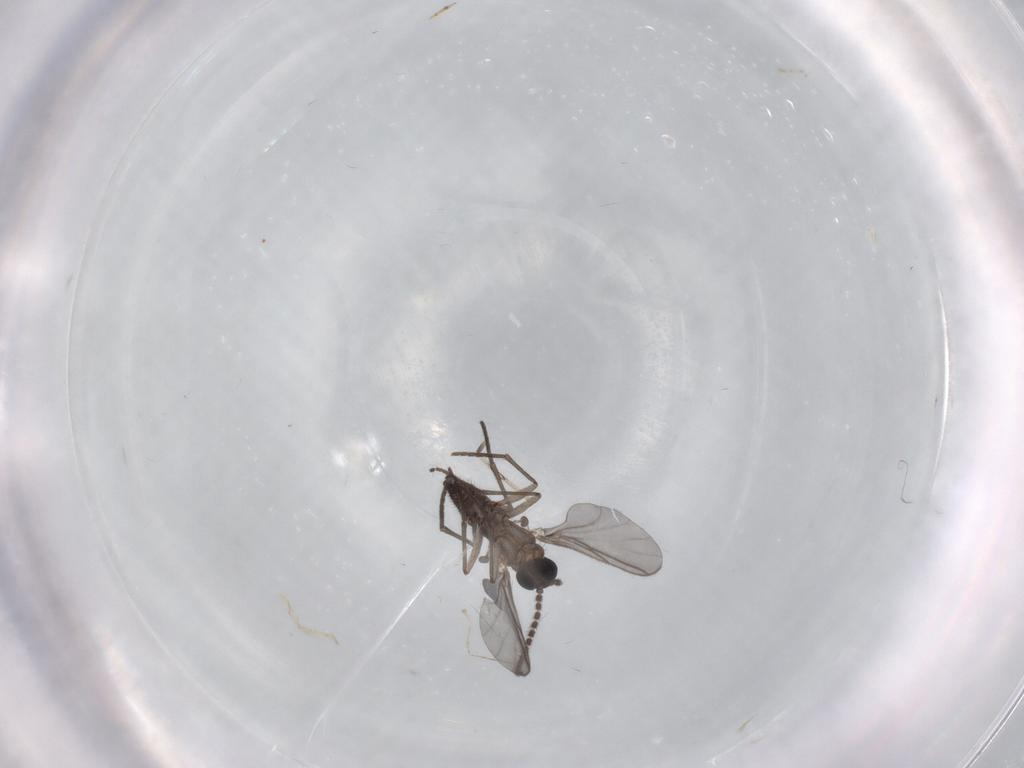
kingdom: Animalia
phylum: Arthropoda
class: Insecta
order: Diptera
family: Cecidomyiidae
